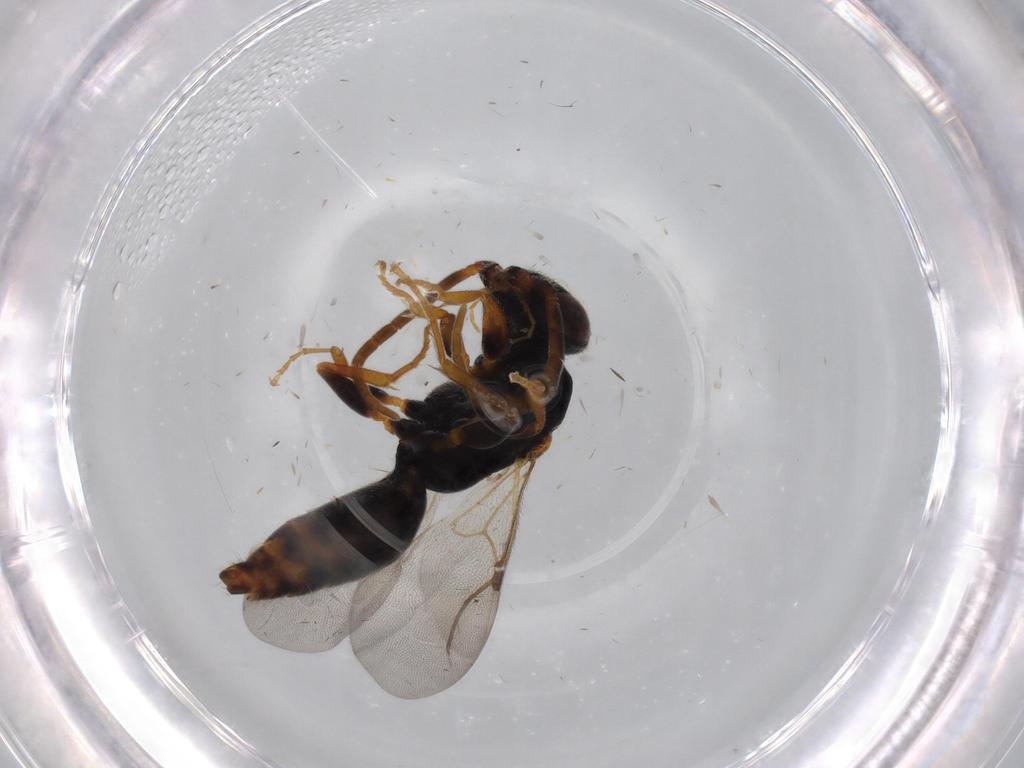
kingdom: Animalia
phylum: Arthropoda
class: Insecta
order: Hymenoptera
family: Bethylidae
